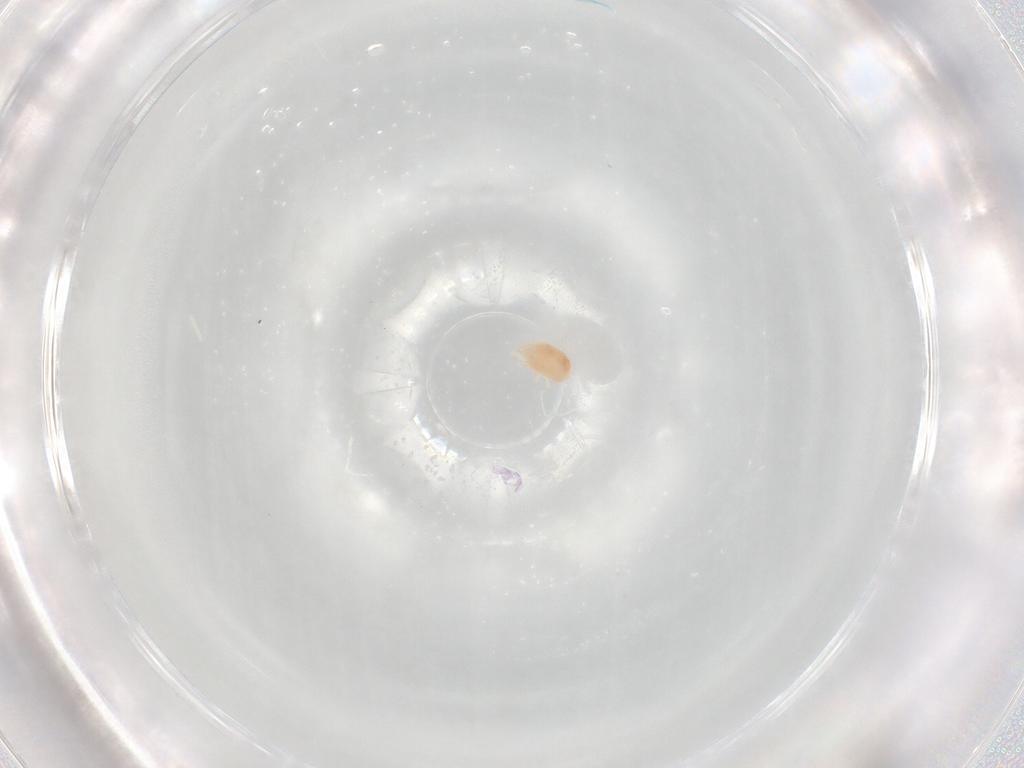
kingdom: Animalia
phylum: Arthropoda
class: Arachnida
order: Trombidiformes
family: Stigmaeidae
